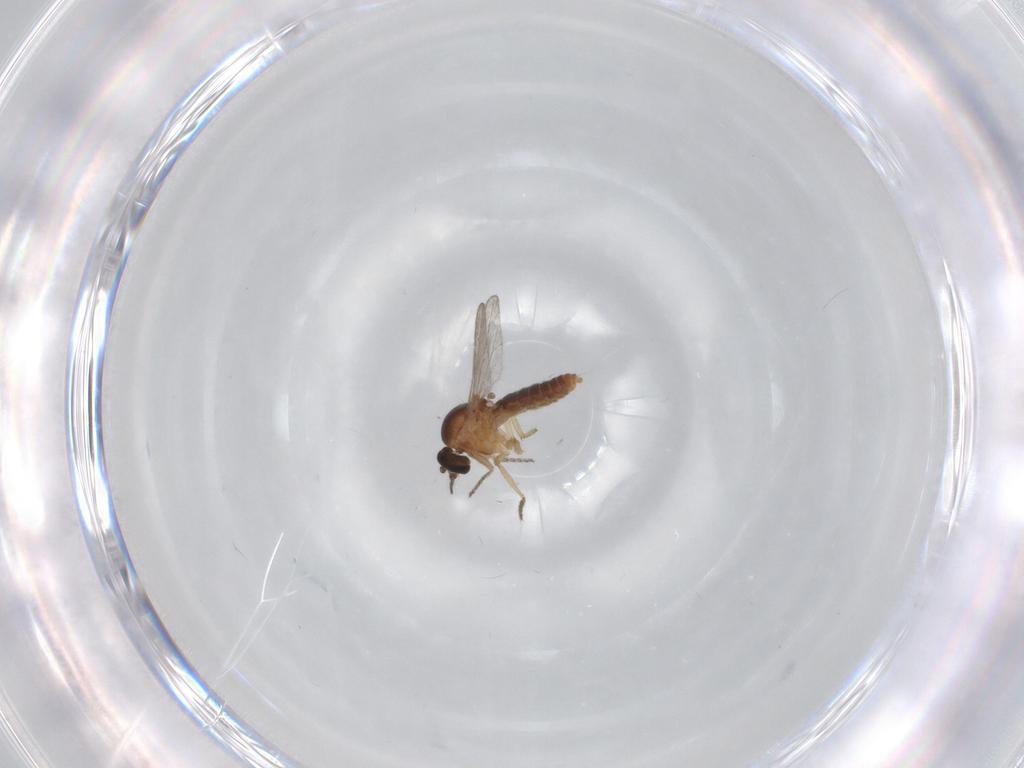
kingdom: Animalia
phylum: Arthropoda
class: Insecta
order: Diptera
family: Ceratopogonidae
